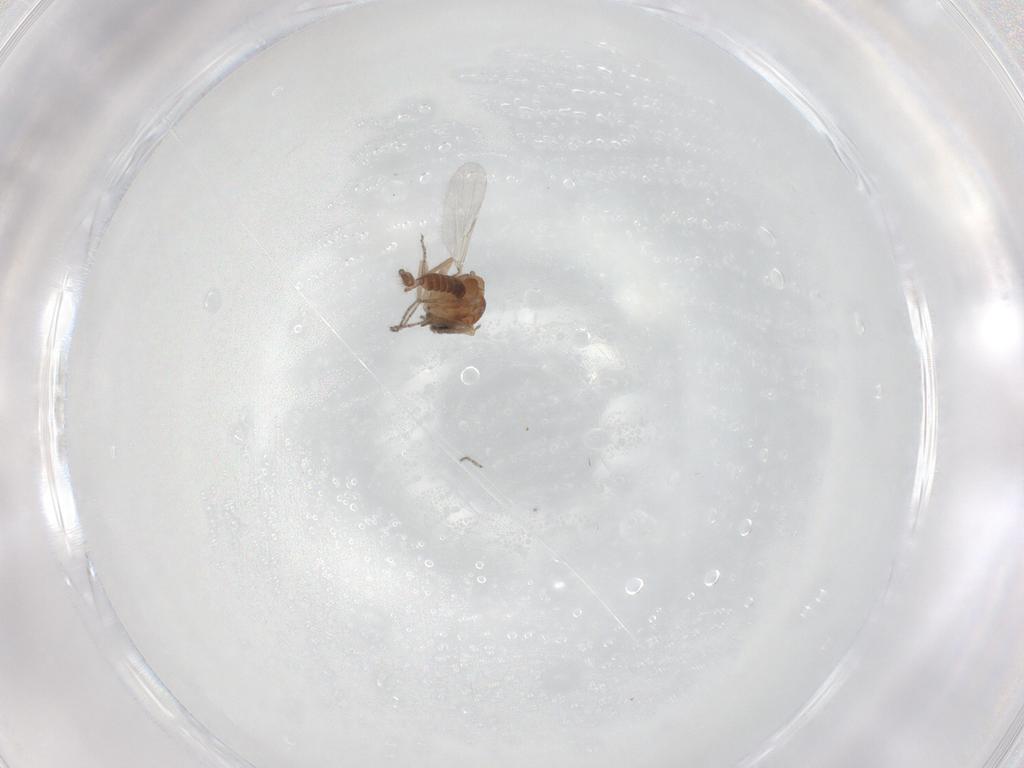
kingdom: Animalia
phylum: Arthropoda
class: Insecta
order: Diptera
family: Ceratopogonidae
